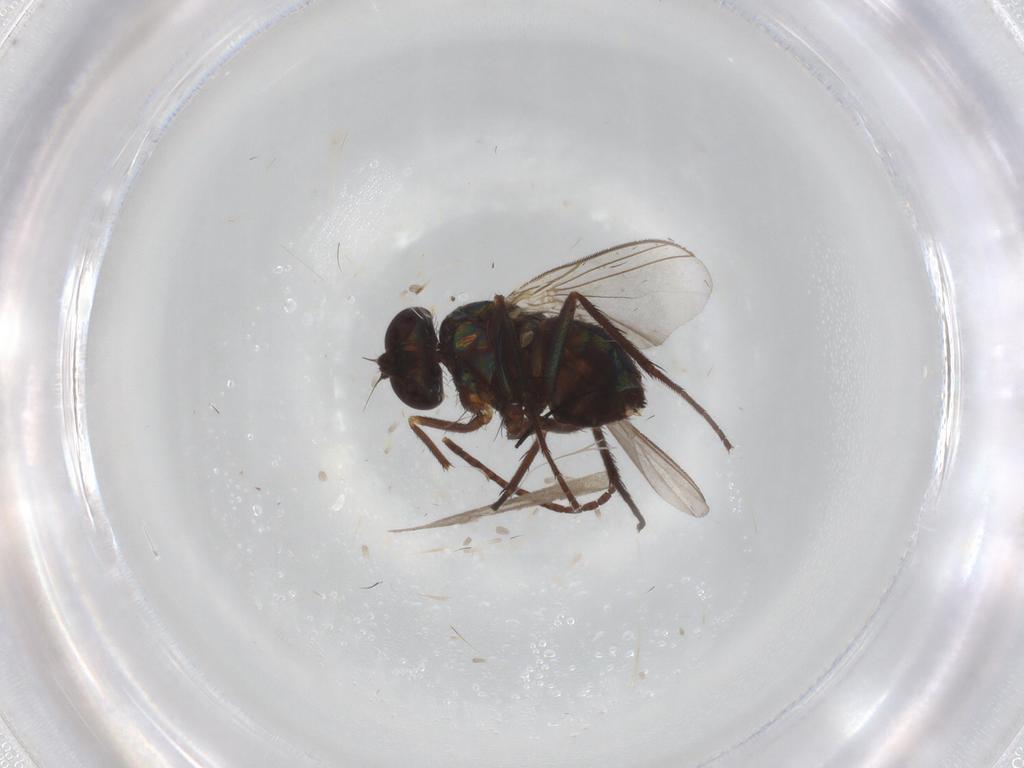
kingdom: Animalia
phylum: Arthropoda
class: Insecta
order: Diptera
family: Dolichopodidae
